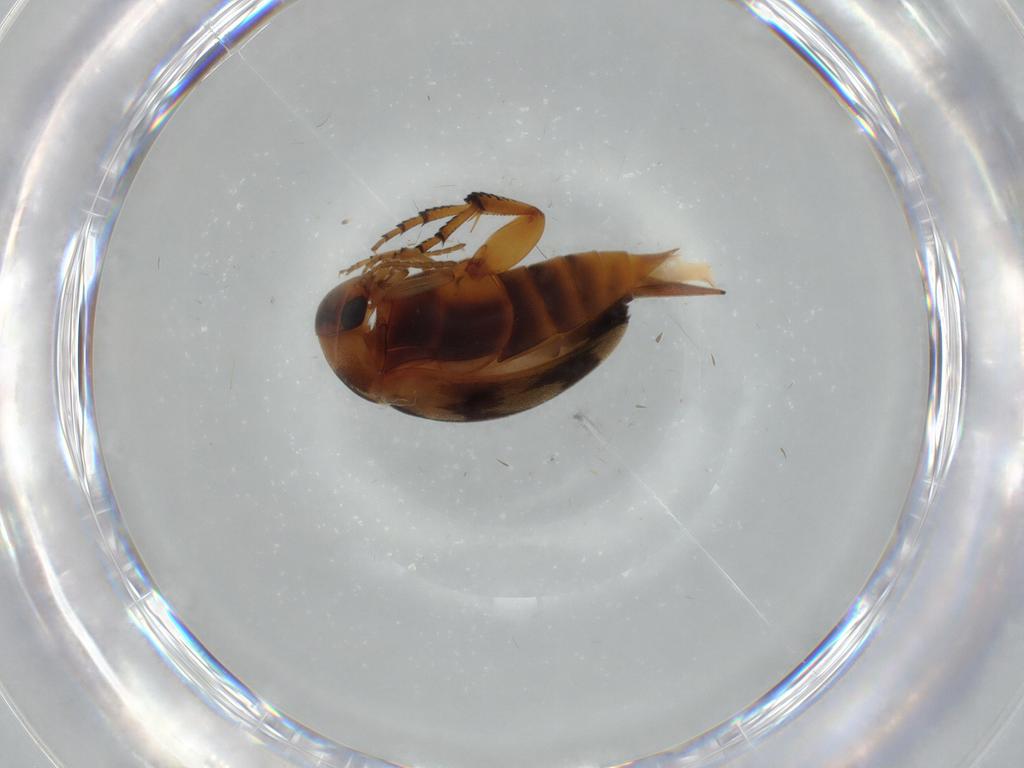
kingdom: Animalia
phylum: Arthropoda
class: Insecta
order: Coleoptera
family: Mordellidae
